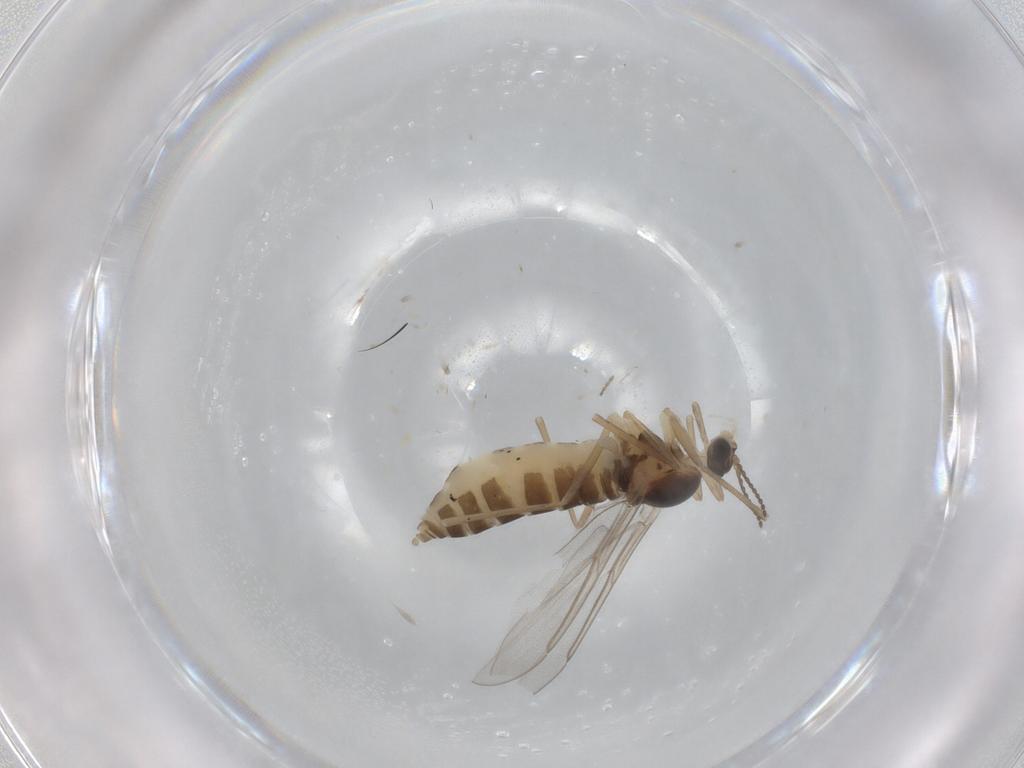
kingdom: Animalia
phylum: Arthropoda
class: Insecta
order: Diptera
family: Cecidomyiidae
